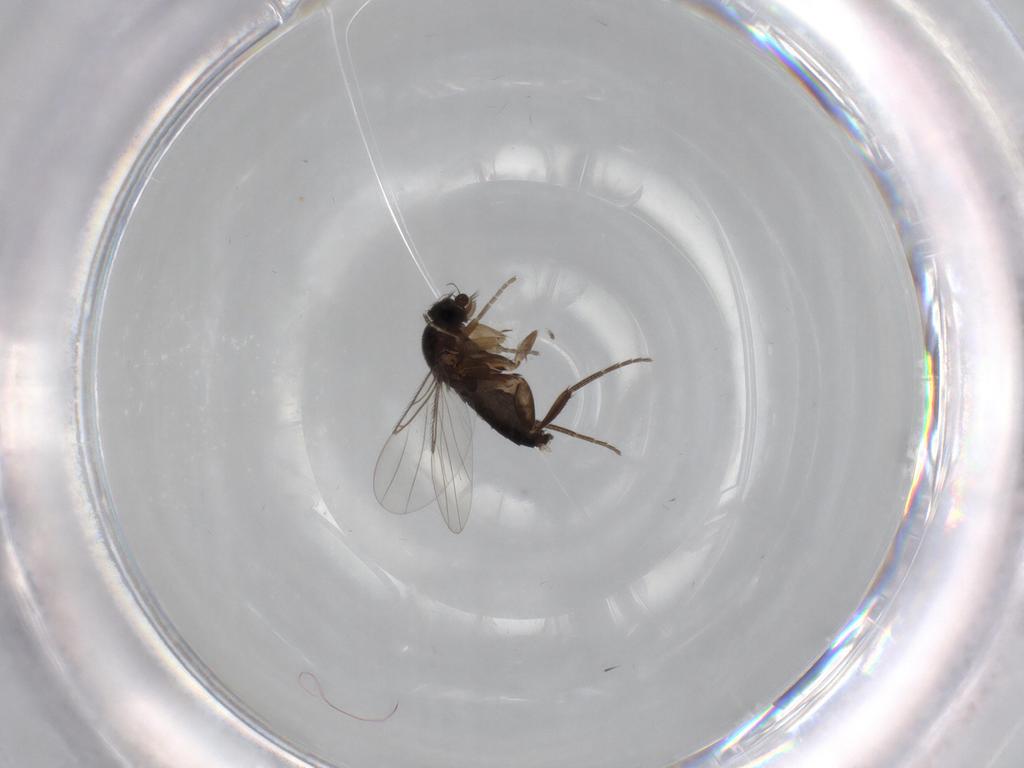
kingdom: Animalia
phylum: Arthropoda
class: Insecta
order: Diptera
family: Phoridae
